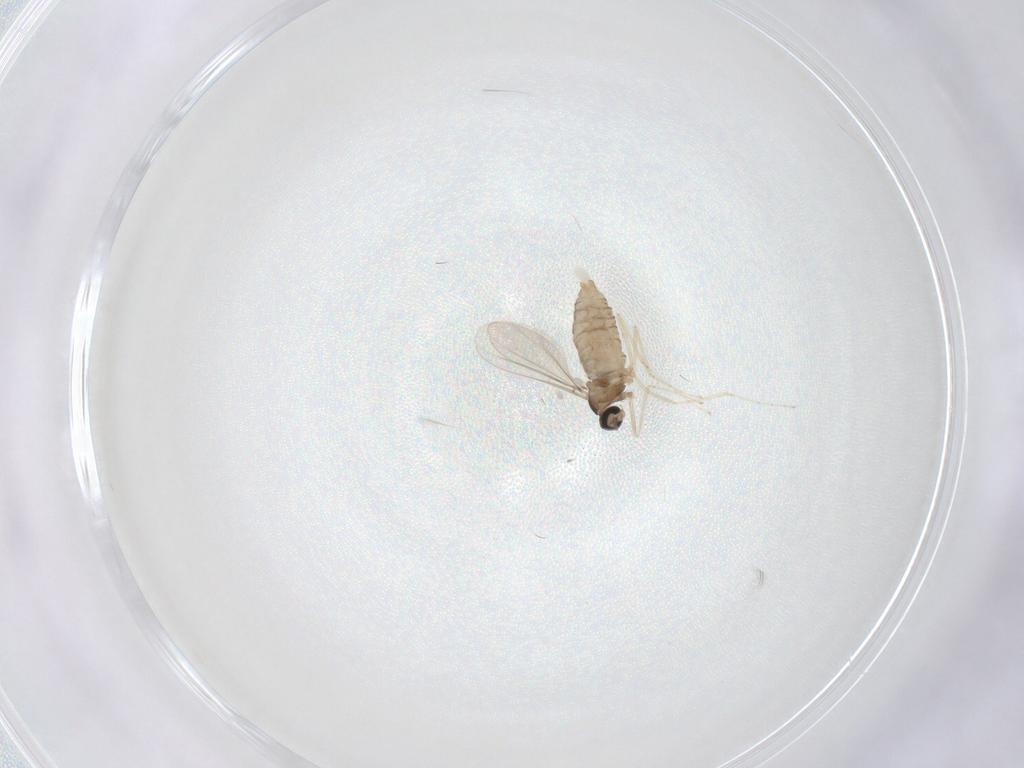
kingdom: Animalia
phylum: Arthropoda
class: Insecta
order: Diptera
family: Cecidomyiidae
